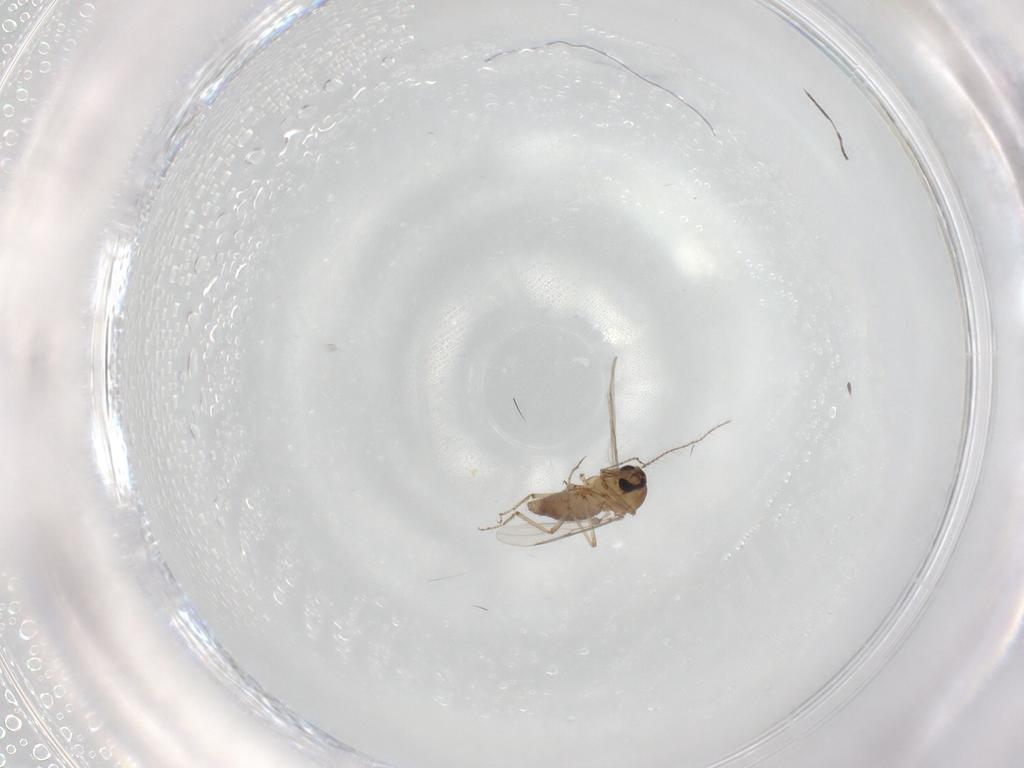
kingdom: Animalia
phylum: Arthropoda
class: Insecta
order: Diptera
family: Ceratopogonidae
